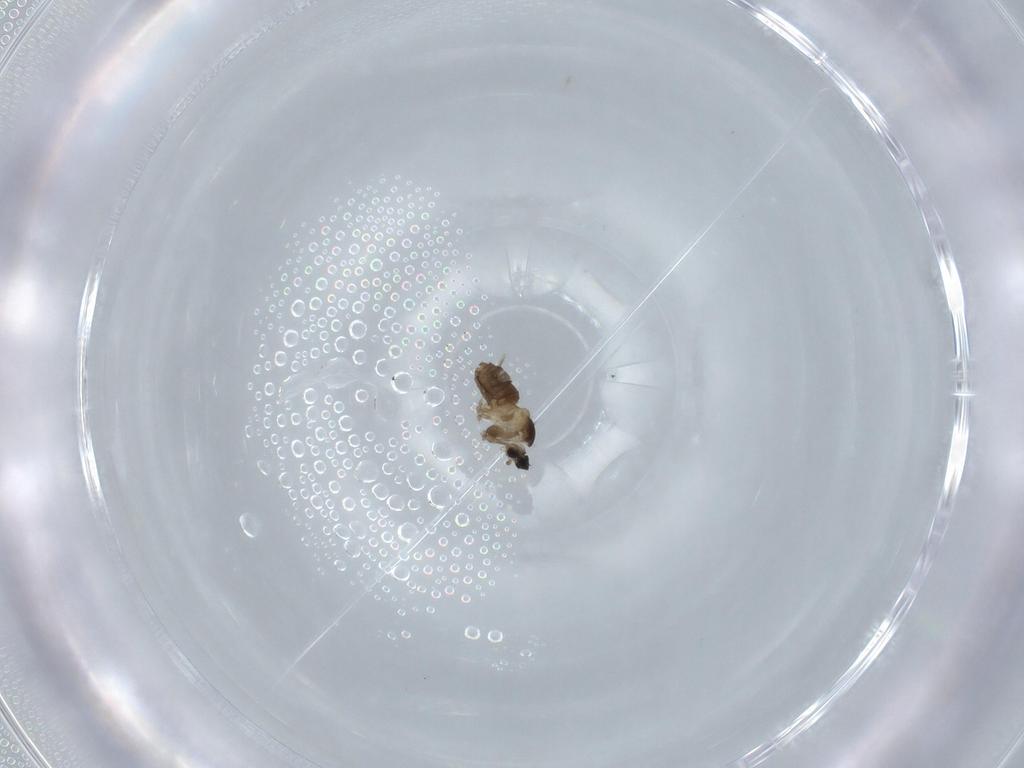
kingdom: Animalia
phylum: Arthropoda
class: Insecta
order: Diptera
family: Cecidomyiidae
